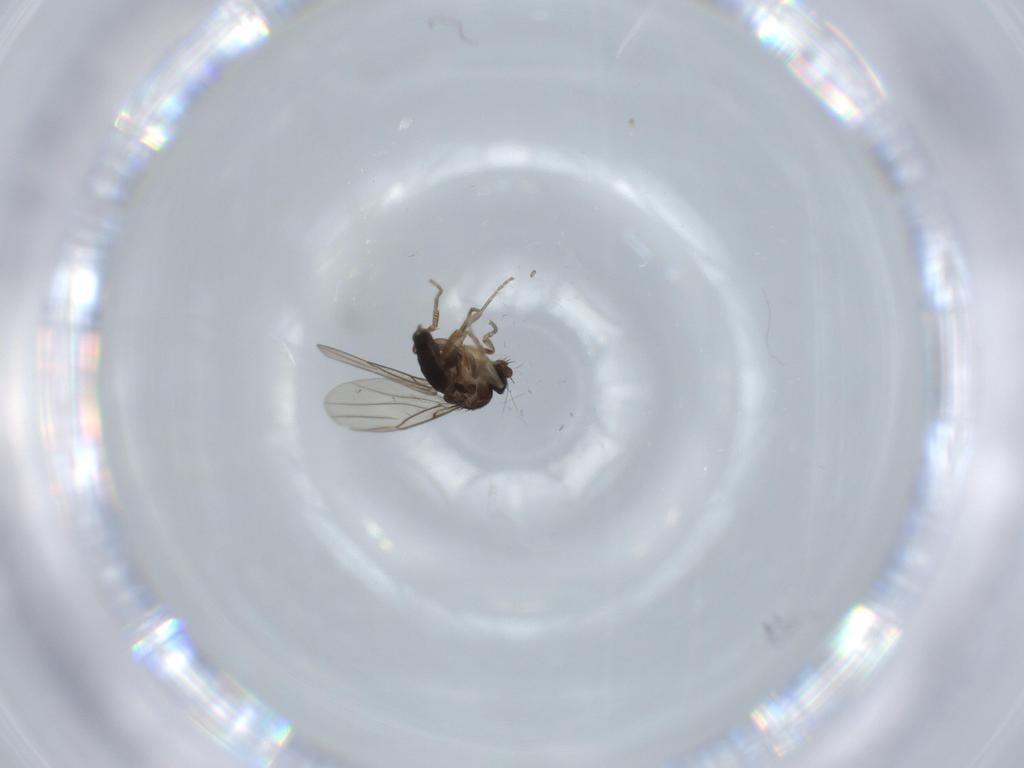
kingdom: Animalia
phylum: Arthropoda
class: Insecta
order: Diptera
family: Phoridae
